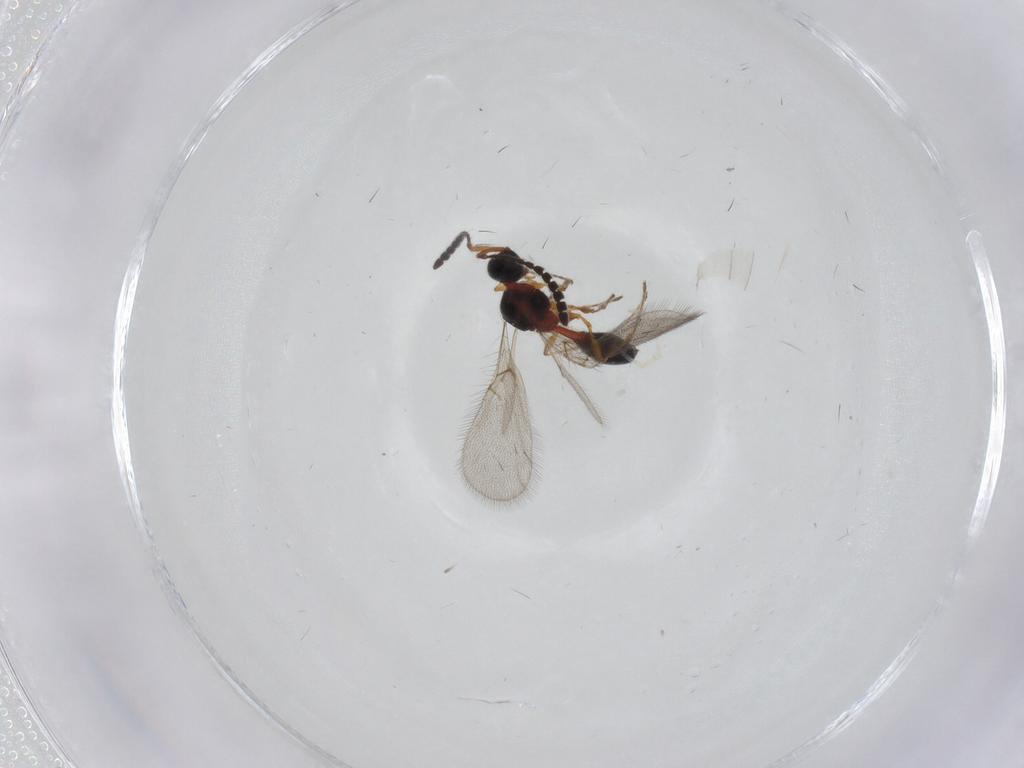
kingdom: Animalia
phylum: Arthropoda
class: Insecta
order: Hymenoptera
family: Diapriidae
